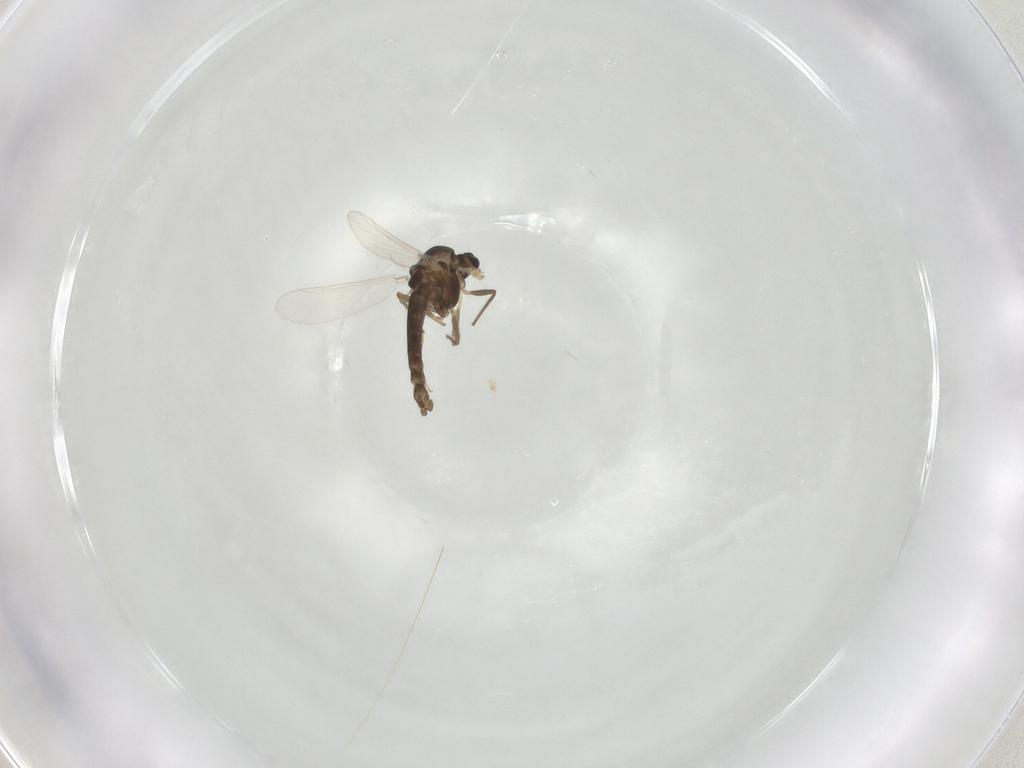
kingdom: Animalia
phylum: Arthropoda
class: Insecta
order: Diptera
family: Chironomidae
